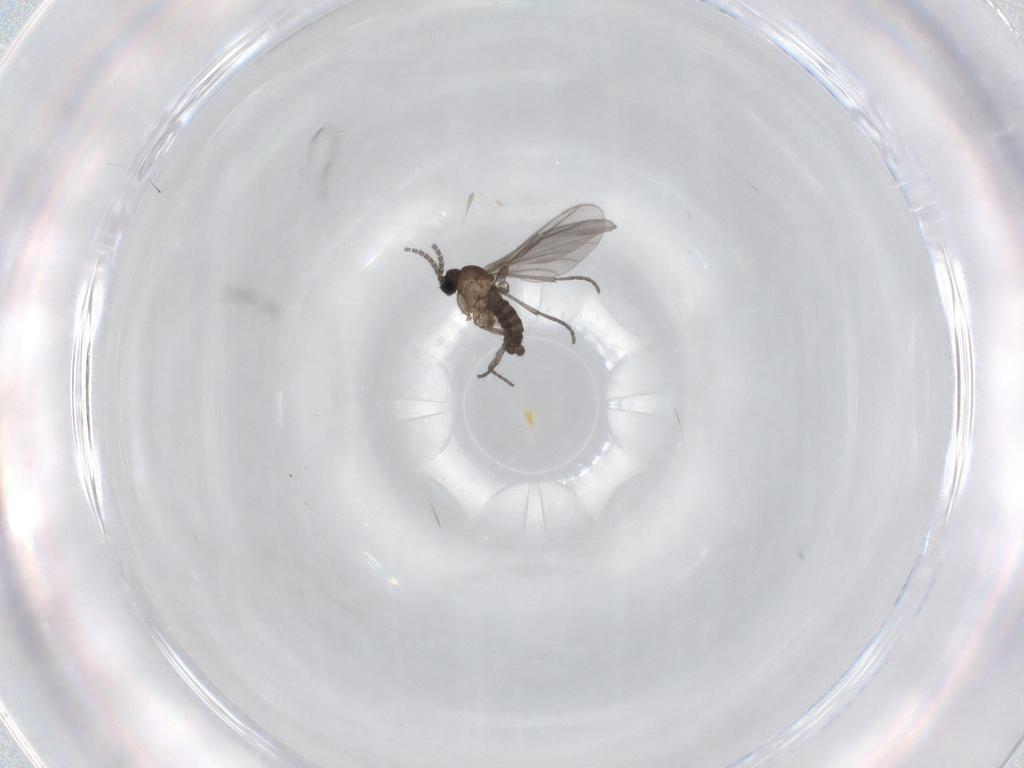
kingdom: Animalia
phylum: Arthropoda
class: Insecta
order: Diptera
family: Sciaridae
